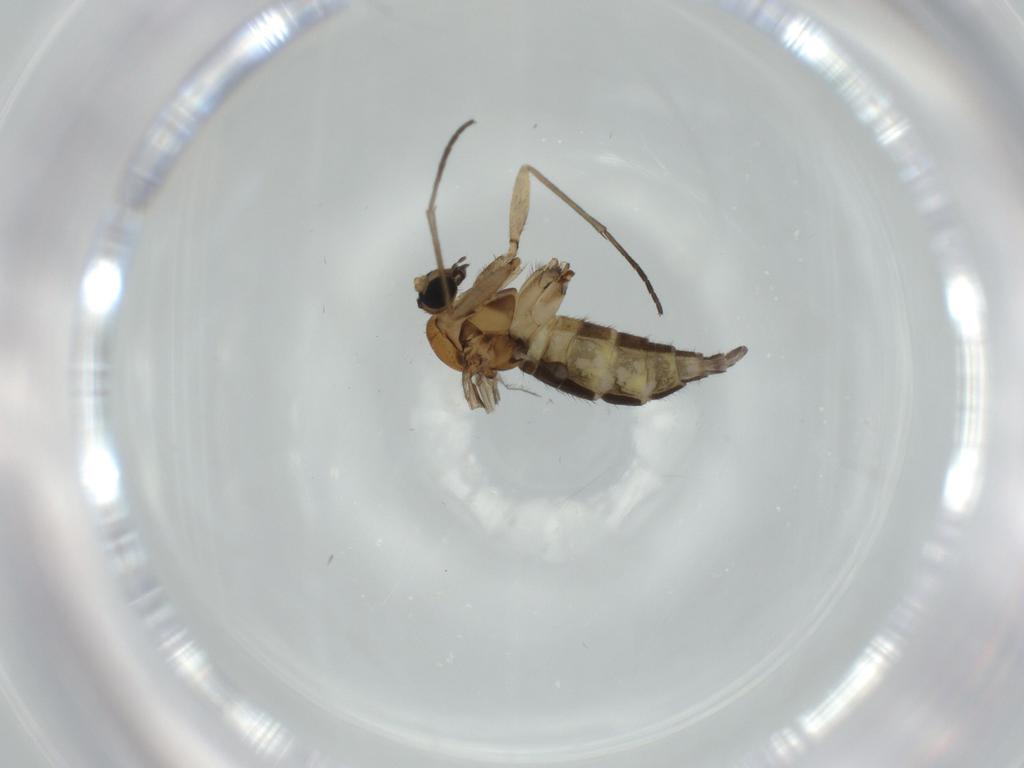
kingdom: Animalia
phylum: Arthropoda
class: Insecta
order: Diptera
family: Sciaridae
